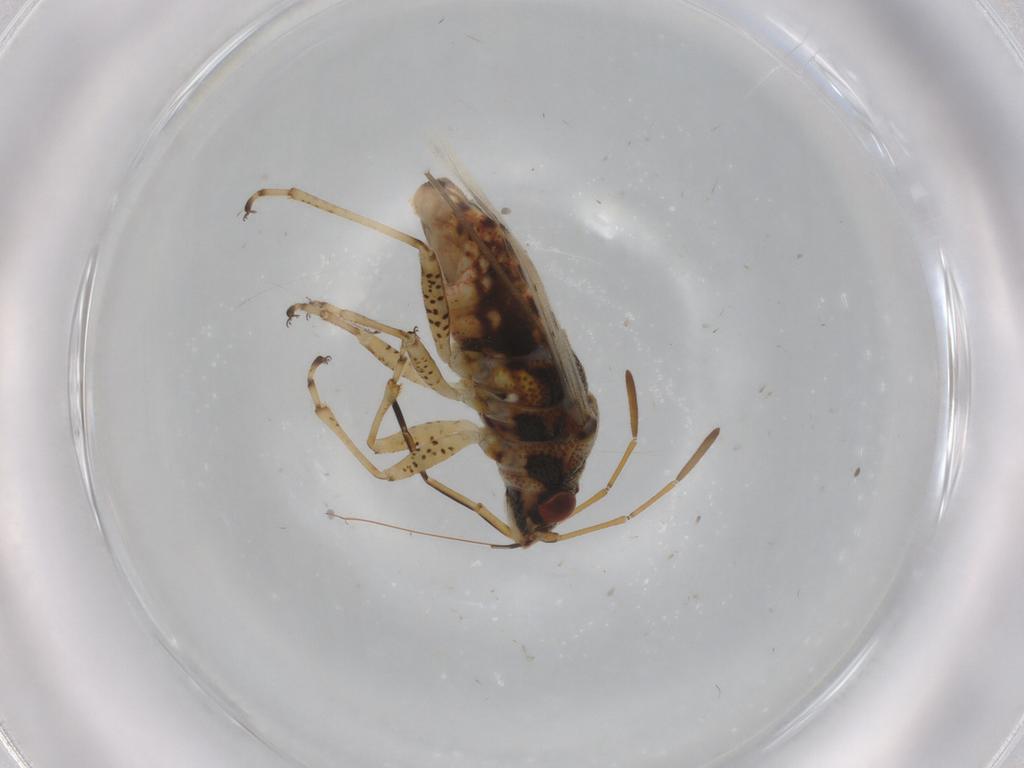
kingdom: Animalia
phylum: Arthropoda
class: Insecta
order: Hemiptera
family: Lygaeidae
